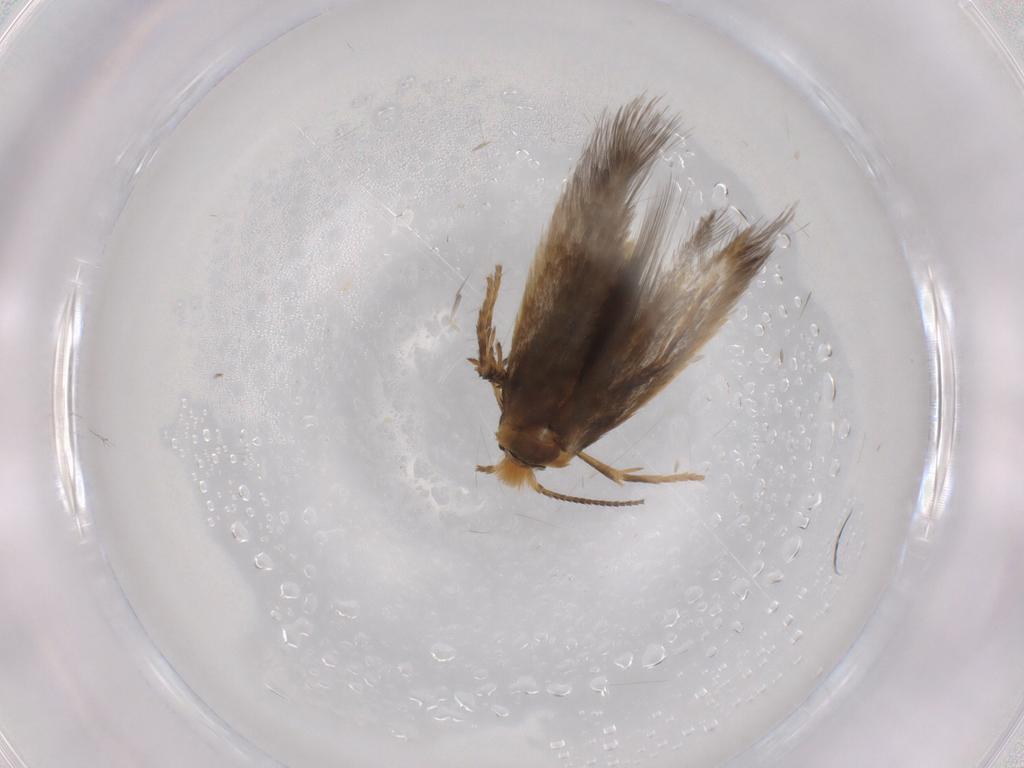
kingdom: Animalia
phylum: Arthropoda
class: Insecta
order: Lepidoptera
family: Nepticulidae
